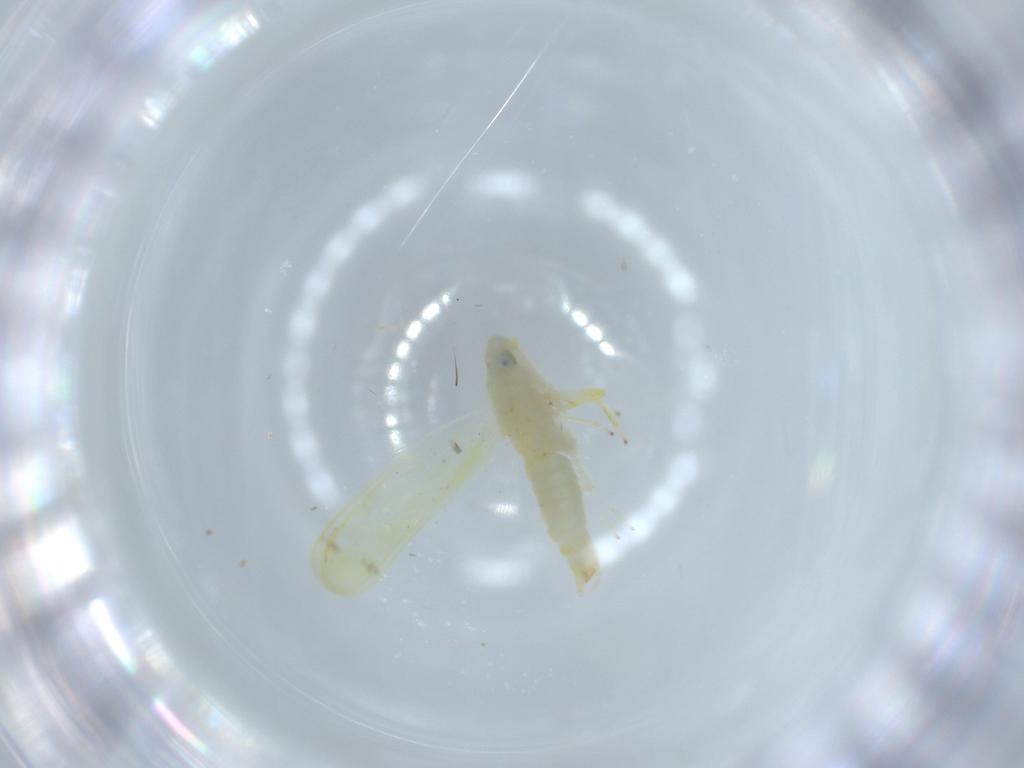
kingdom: Animalia
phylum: Arthropoda
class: Insecta
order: Hemiptera
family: Cicadellidae
